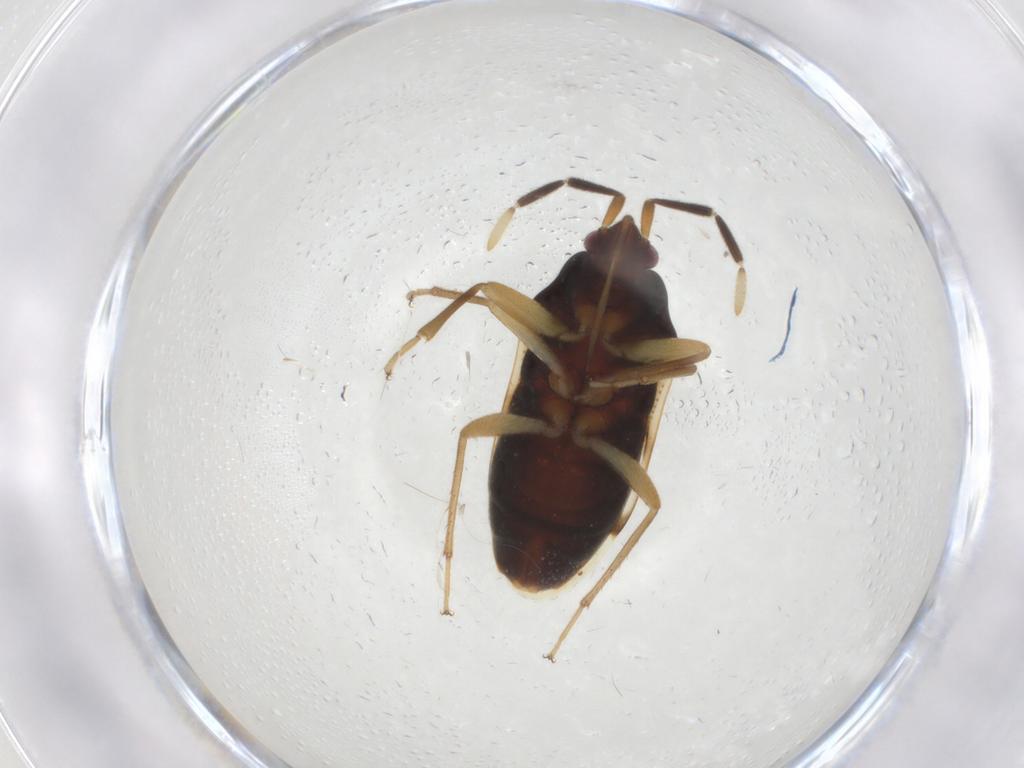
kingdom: Animalia
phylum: Arthropoda
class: Insecta
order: Hemiptera
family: Rhyparochromidae
